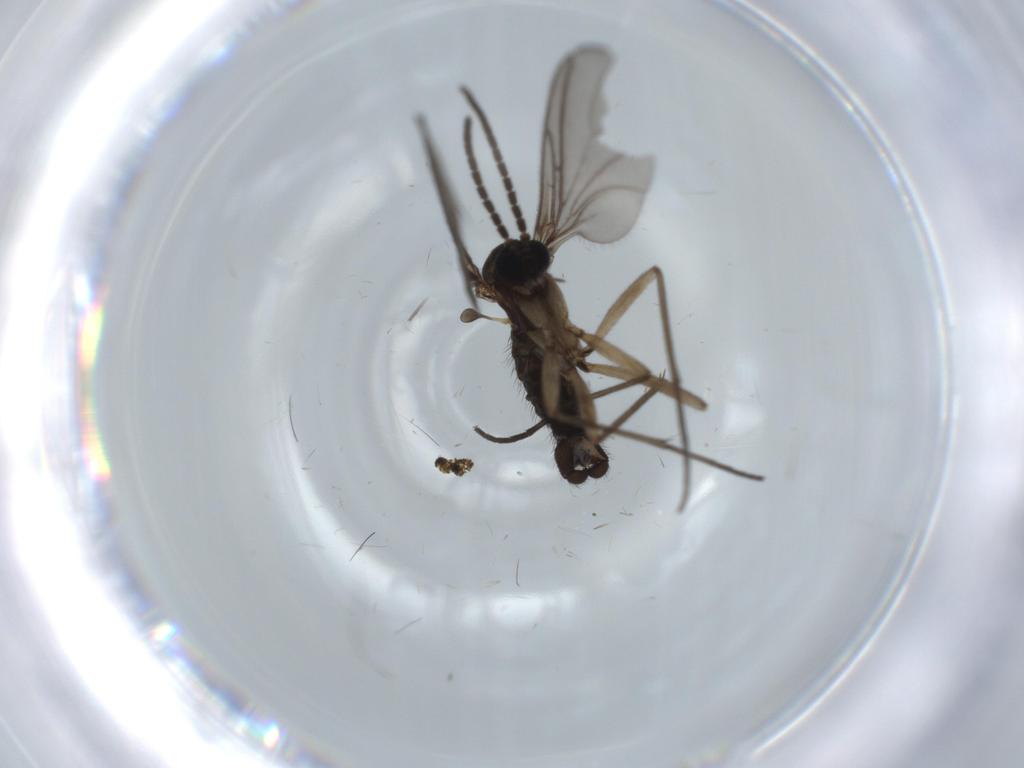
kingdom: Animalia
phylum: Arthropoda
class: Insecta
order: Diptera
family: Sciaridae
